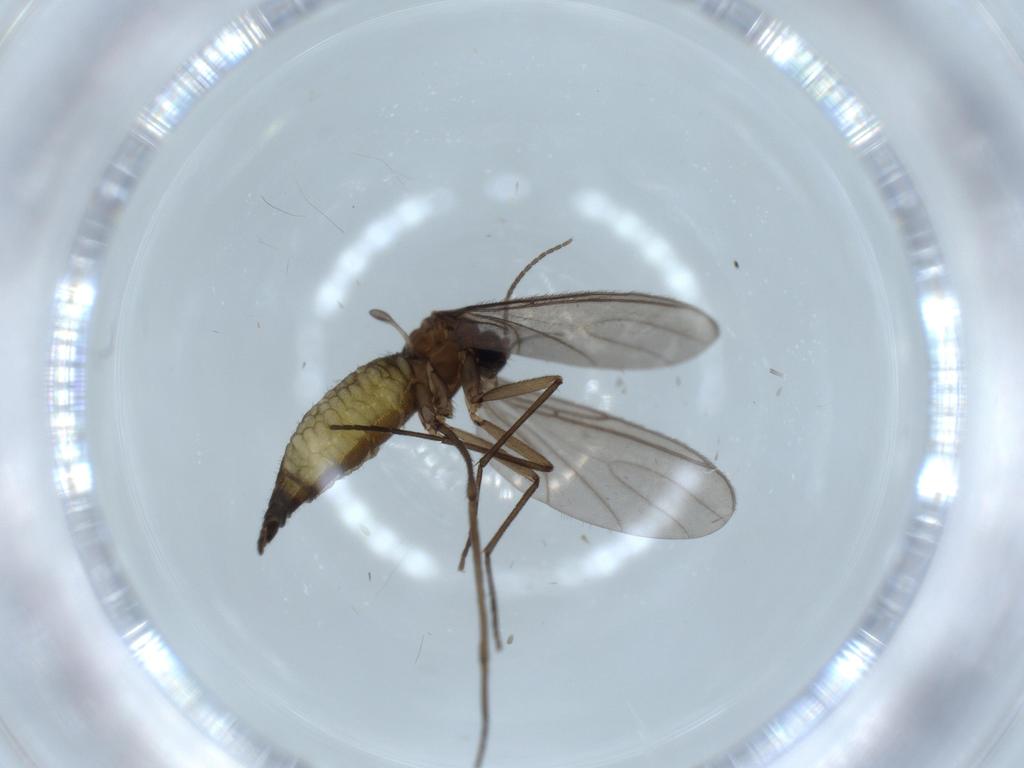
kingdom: Animalia
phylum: Arthropoda
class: Insecta
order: Diptera
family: Sciaridae
